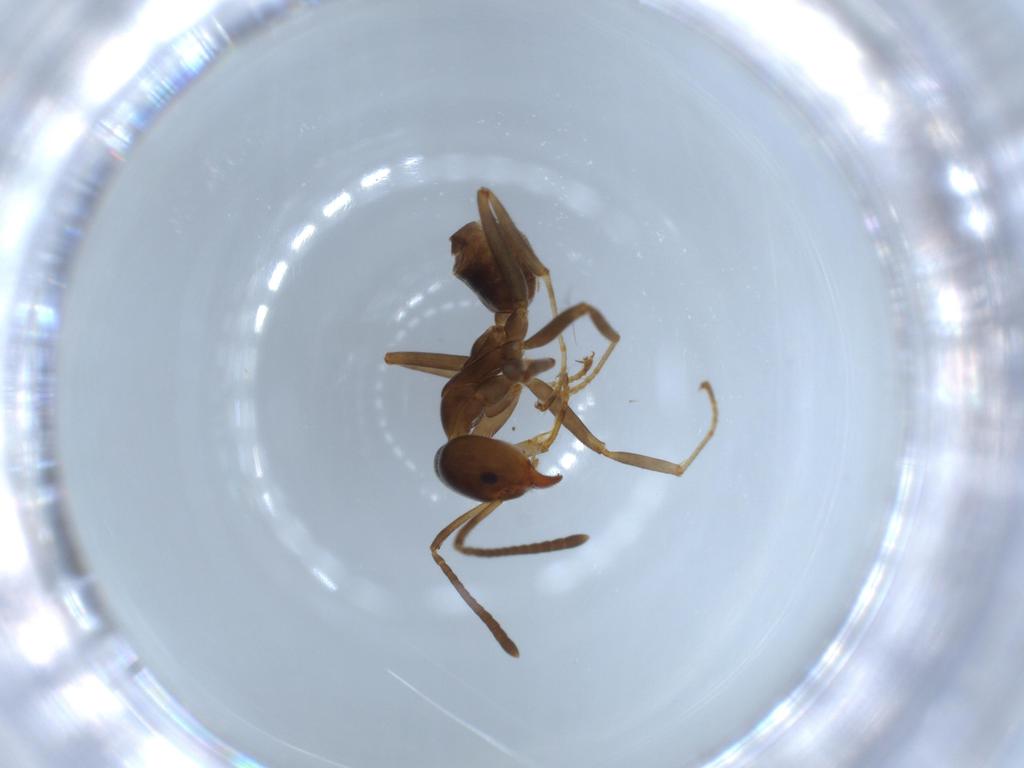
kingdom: Animalia
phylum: Arthropoda
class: Insecta
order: Hymenoptera
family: Formicidae
